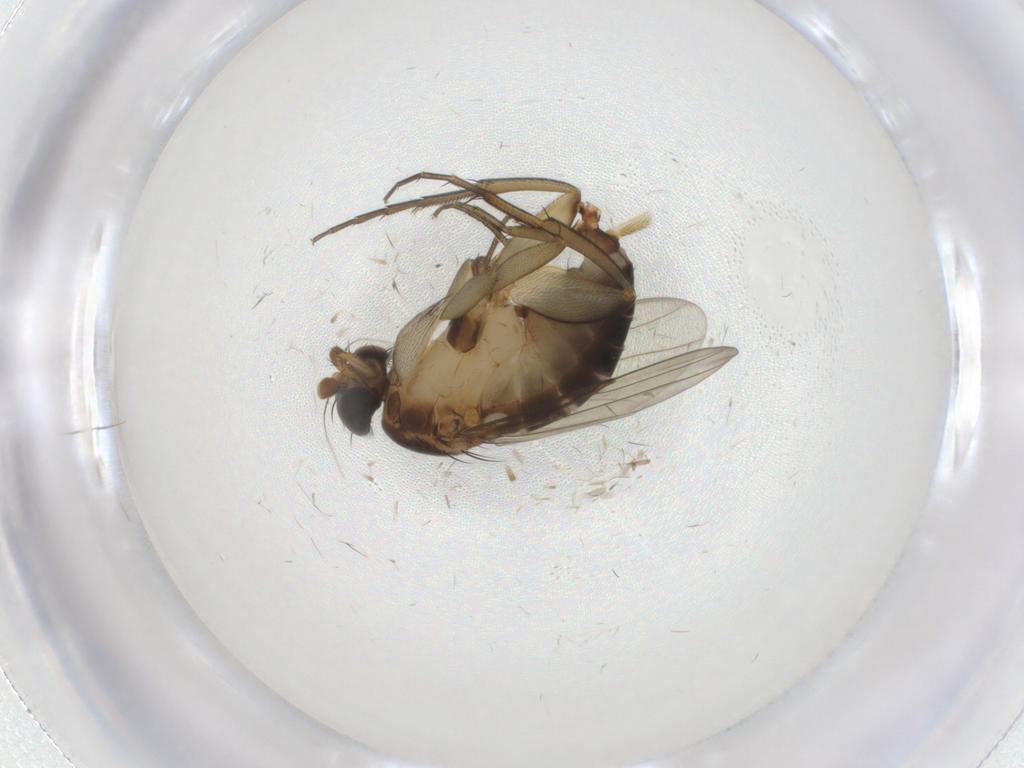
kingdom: Animalia
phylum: Arthropoda
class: Insecta
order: Diptera
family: Phoridae
